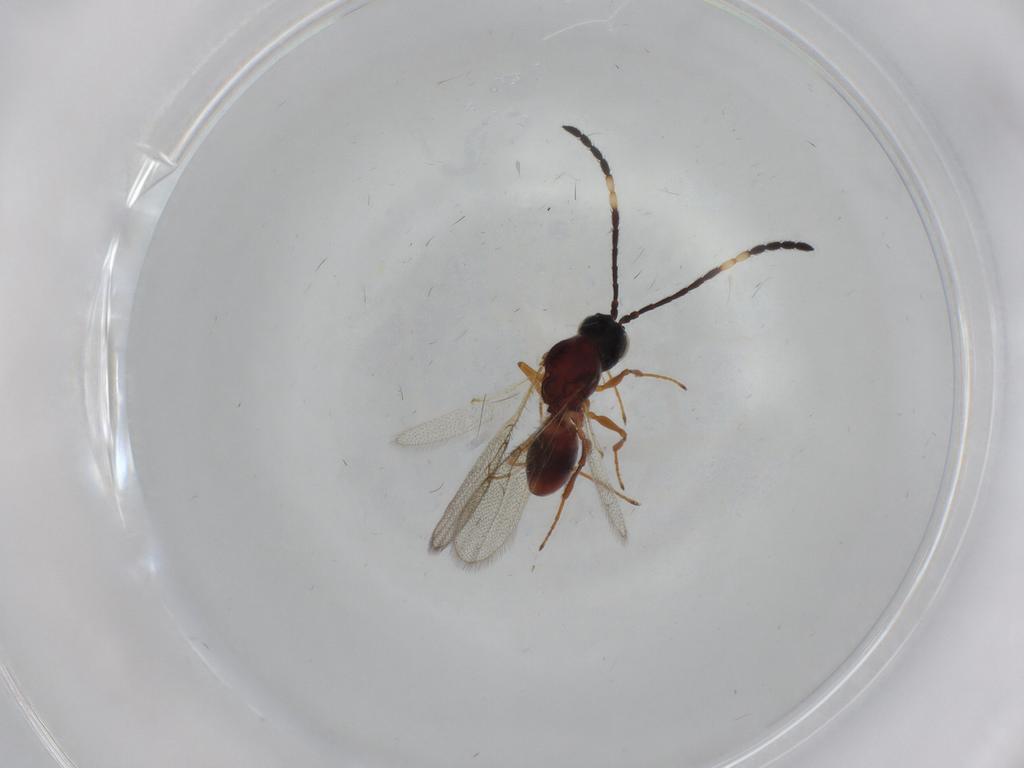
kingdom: Animalia
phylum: Arthropoda
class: Insecta
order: Hymenoptera
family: Figitidae
